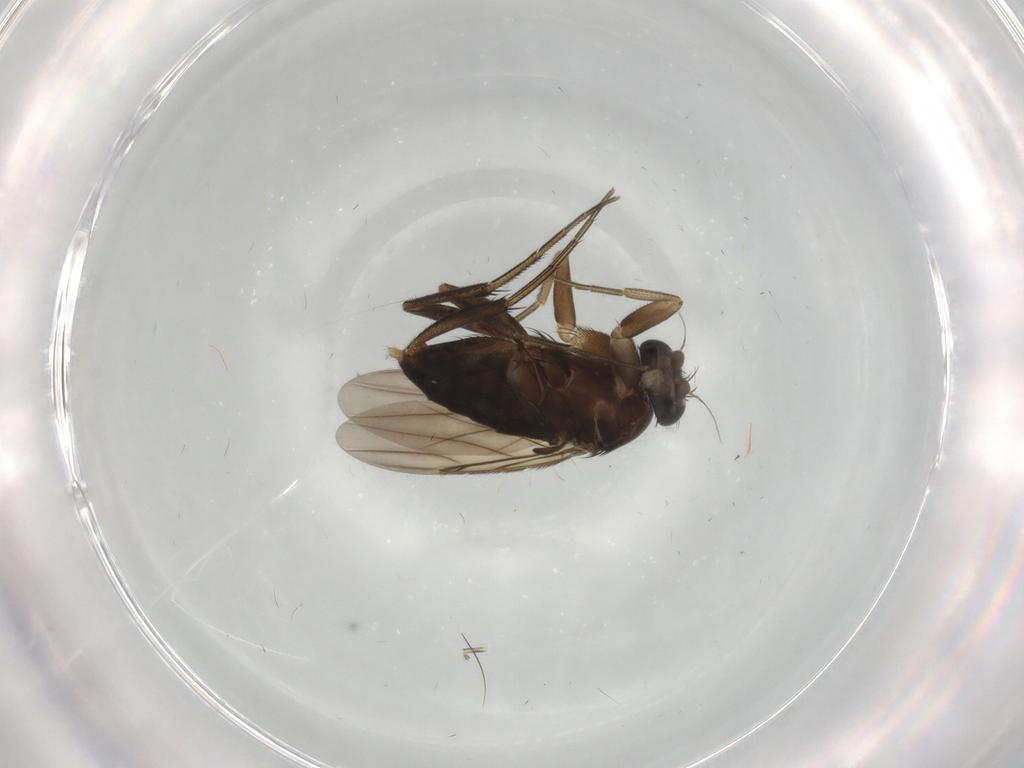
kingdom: Animalia
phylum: Arthropoda
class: Insecta
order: Diptera
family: Phoridae
